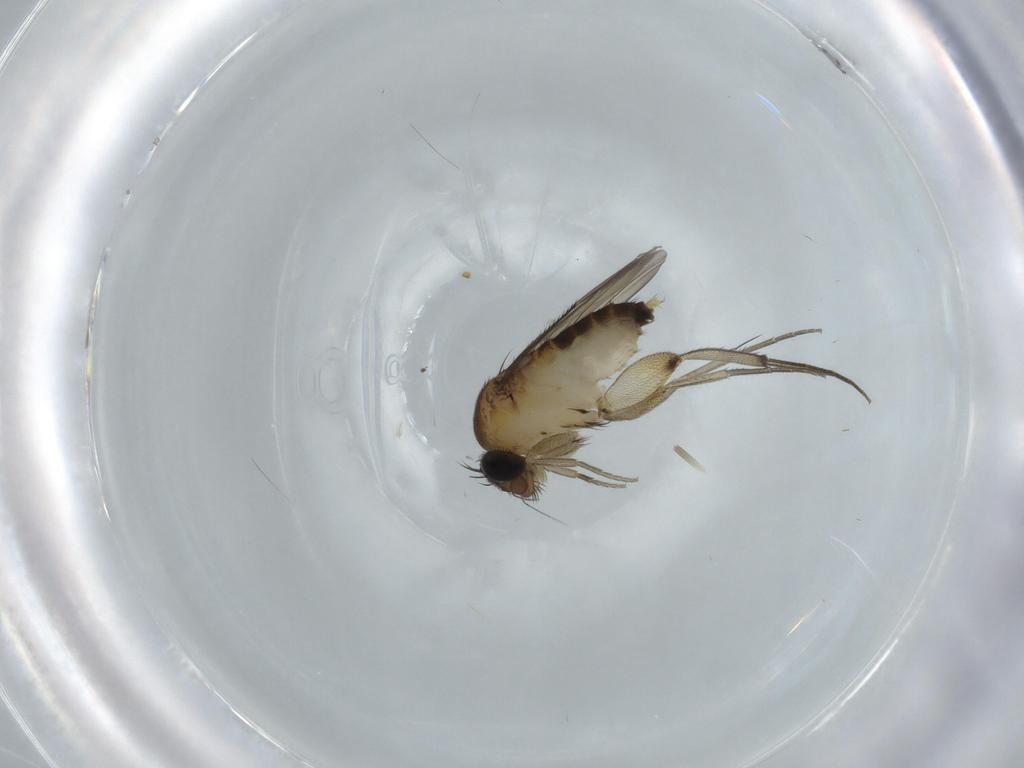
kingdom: Animalia
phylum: Arthropoda
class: Insecta
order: Diptera
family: Phoridae
